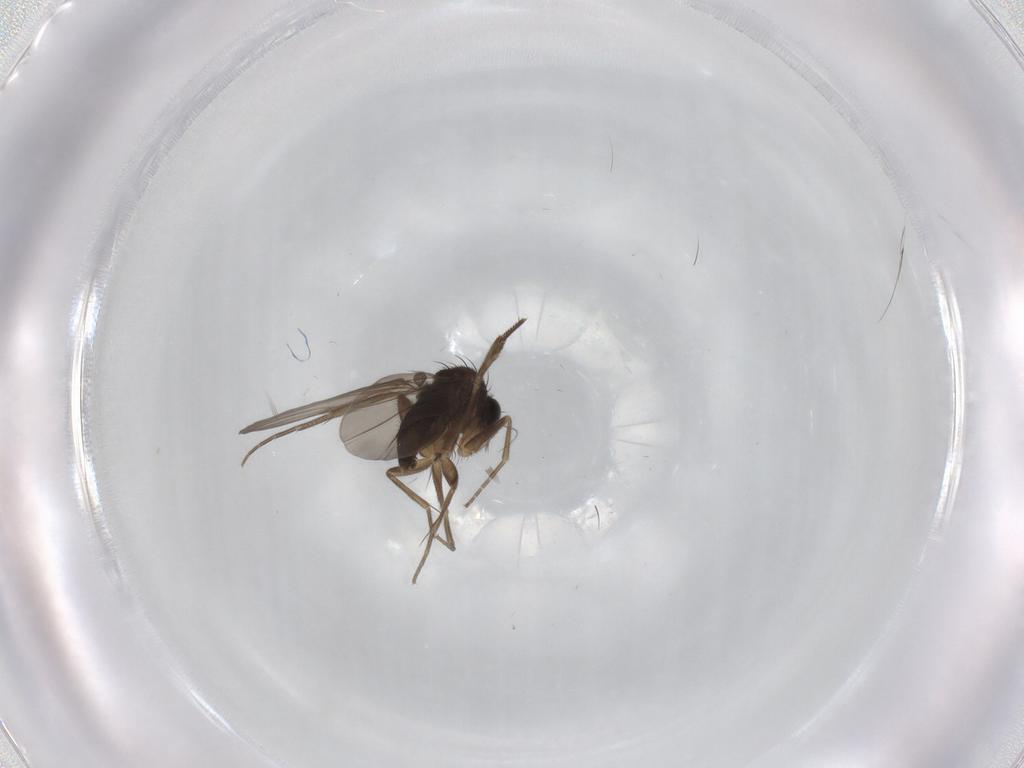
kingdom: Animalia
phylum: Arthropoda
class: Insecta
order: Diptera
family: Phoridae
